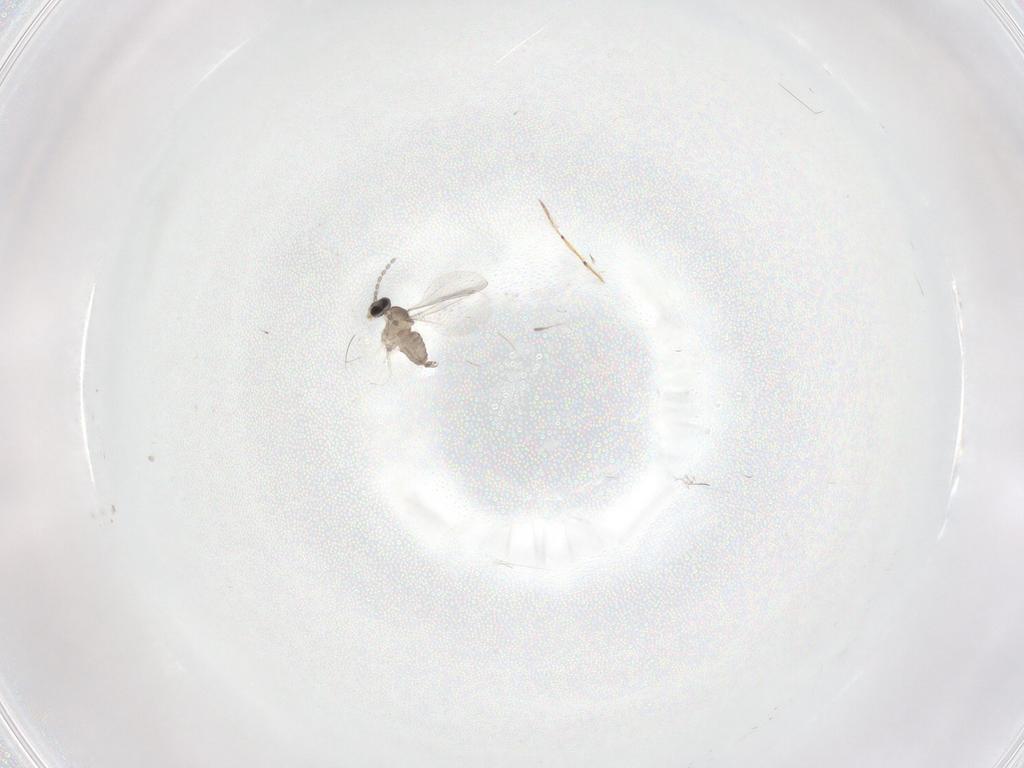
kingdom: Animalia
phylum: Arthropoda
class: Insecta
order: Diptera
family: Cecidomyiidae
